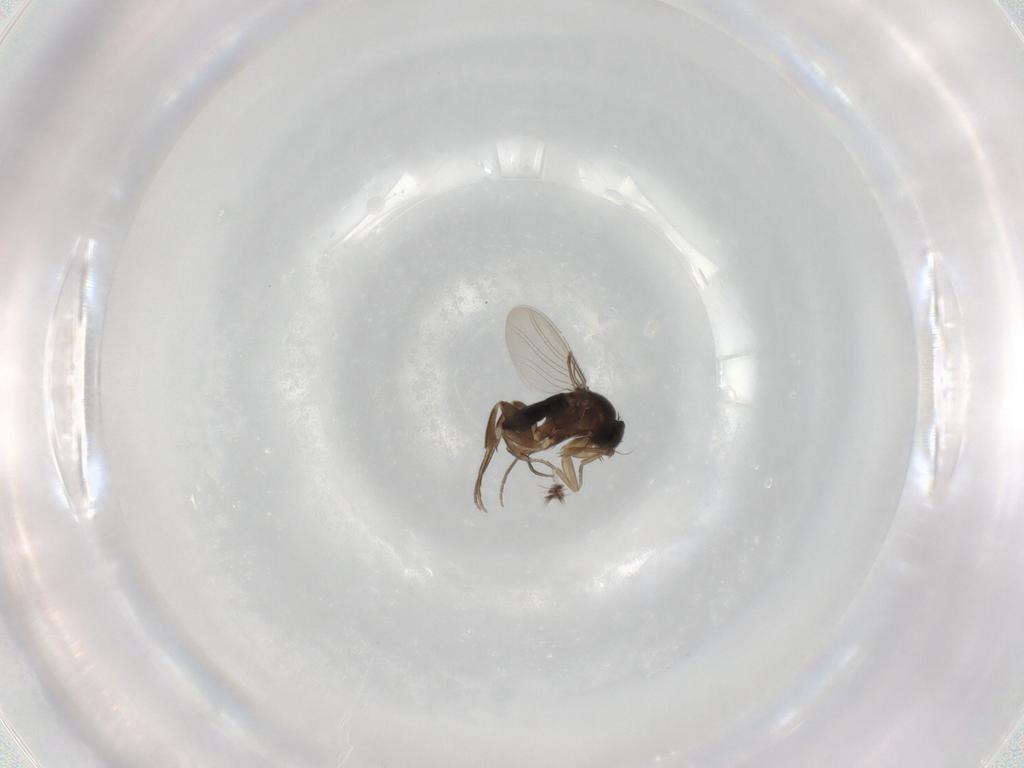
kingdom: Animalia
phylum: Arthropoda
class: Insecta
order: Diptera
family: Phoridae
